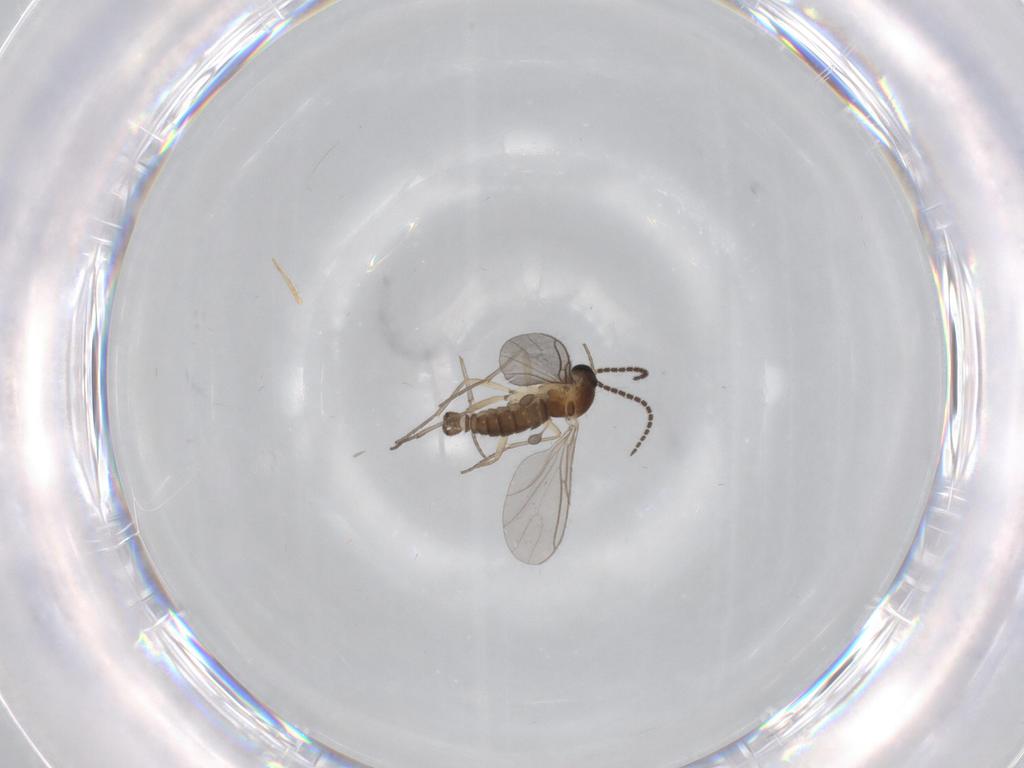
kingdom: Animalia
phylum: Arthropoda
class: Insecta
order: Diptera
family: Sciaridae
